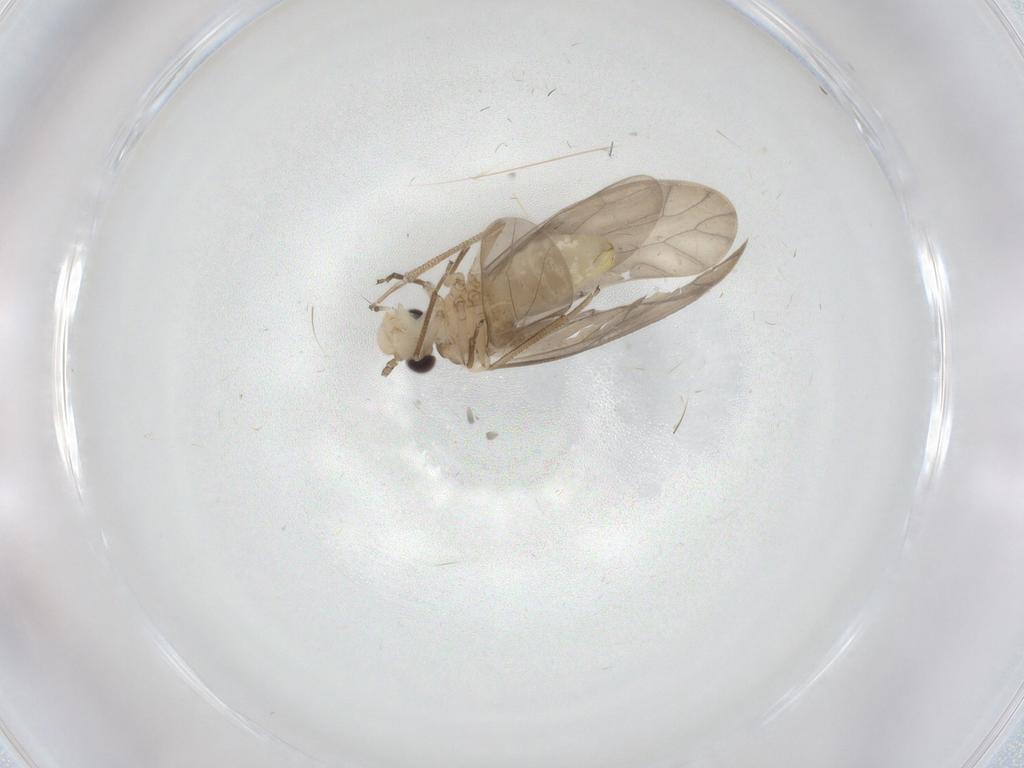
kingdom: Animalia
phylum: Arthropoda
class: Insecta
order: Psocodea
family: Caeciliusidae
